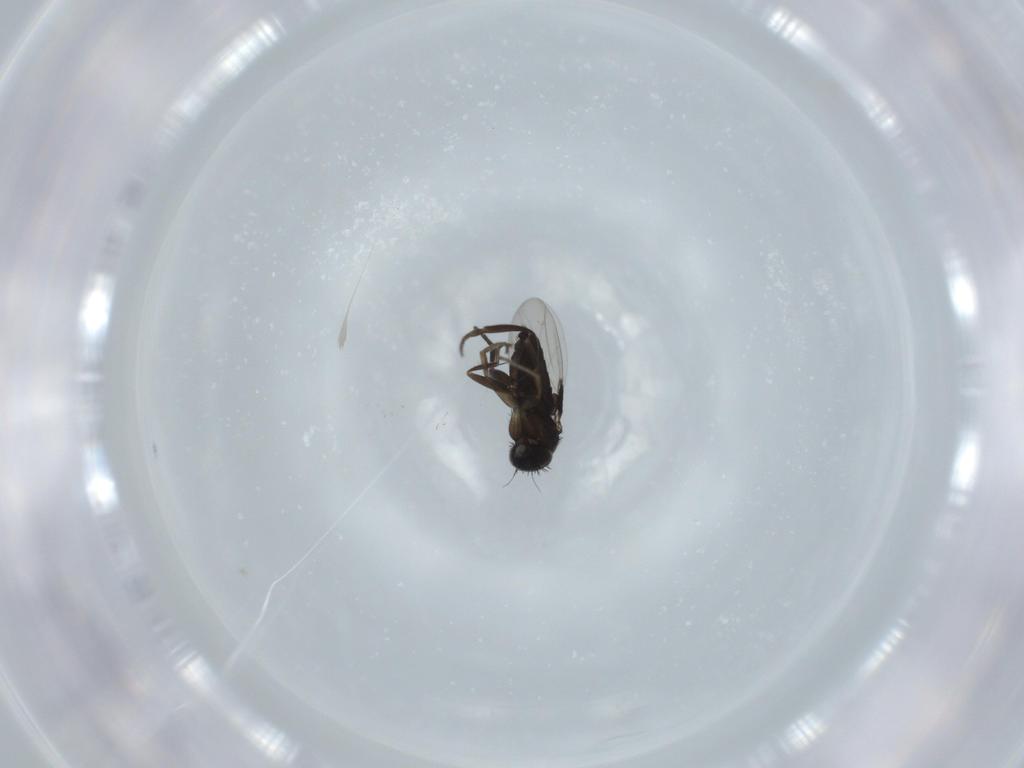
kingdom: Animalia
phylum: Arthropoda
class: Insecta
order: Diptera
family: Phoridae
